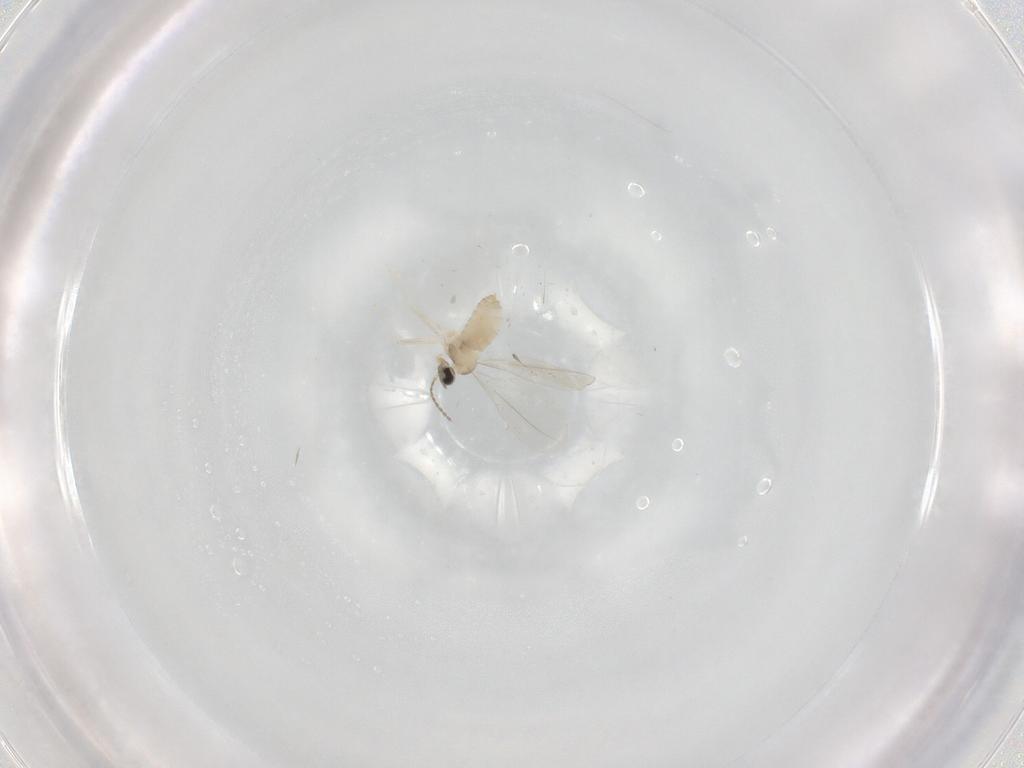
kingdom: Animalia
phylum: Arthropoda
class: Insecta
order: Diptera
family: Cecidomyiidae
